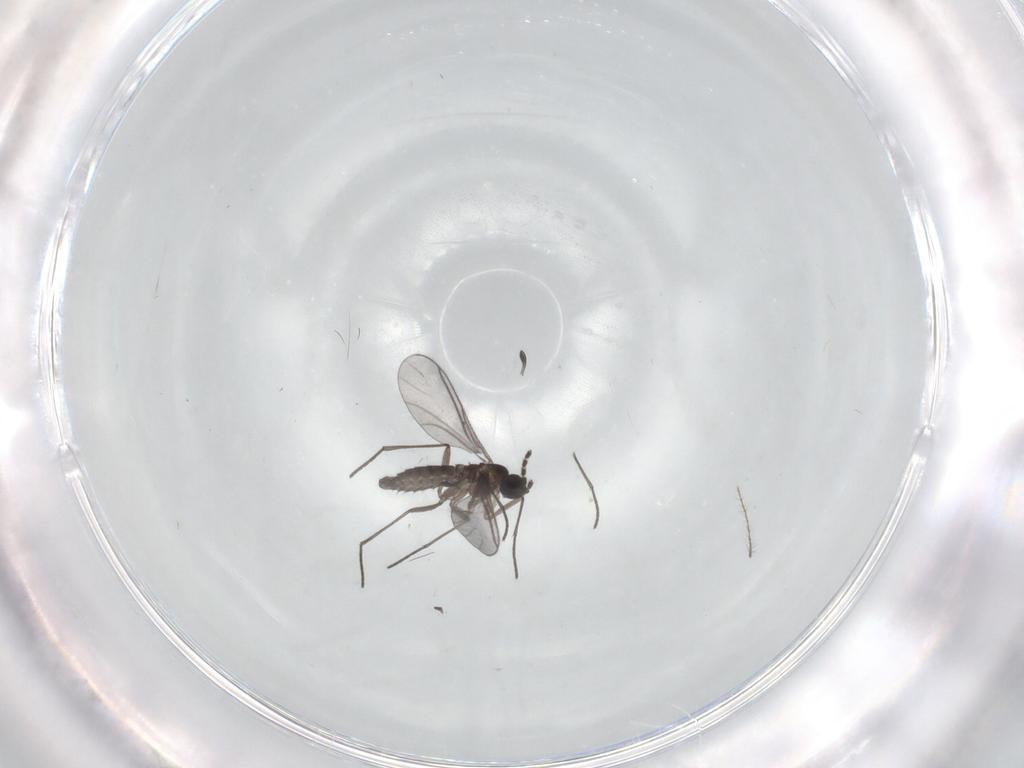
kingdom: Animalia
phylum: Arthropoda
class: Insecta
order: Diptera
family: Phoridae
